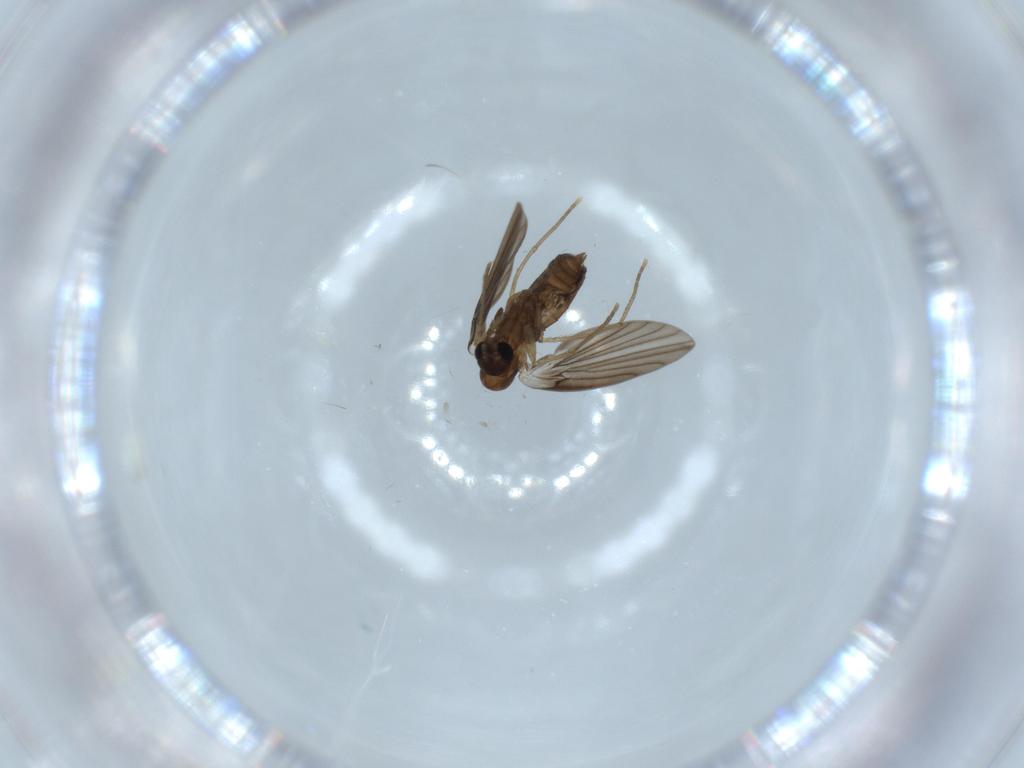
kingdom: Animalia
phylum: Arthropoda
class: Insecta
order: Diptera
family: Psychodidae
